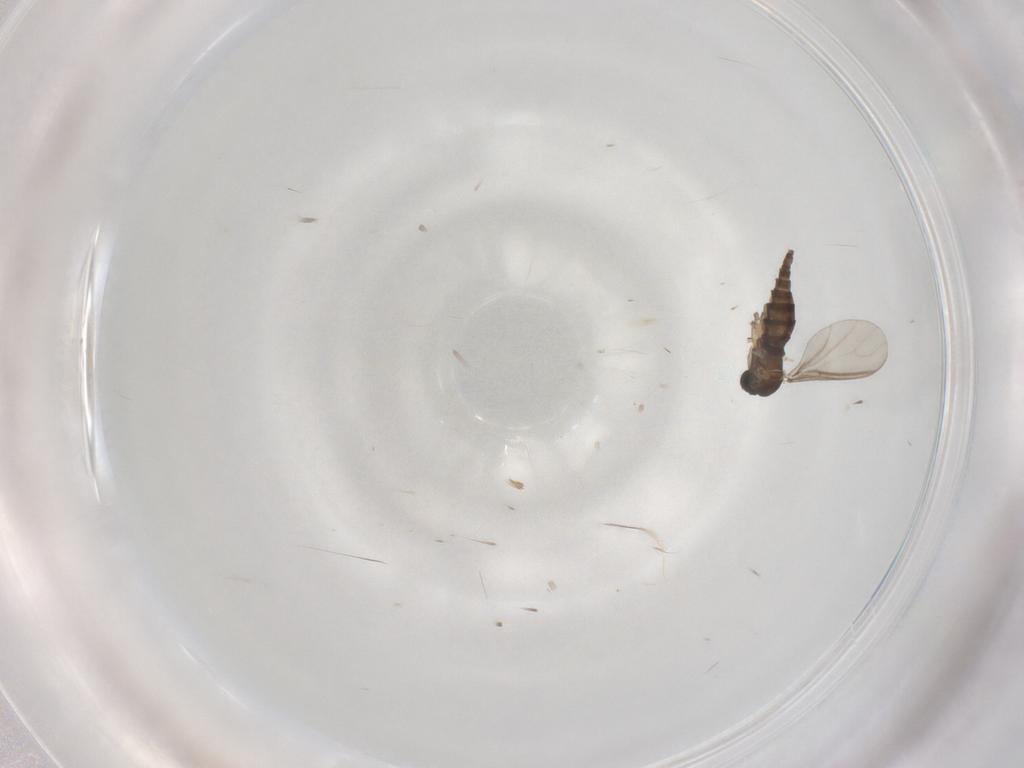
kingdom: Animalia
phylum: Arthropoda
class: Insecta
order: Diptera
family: Sciaridae
